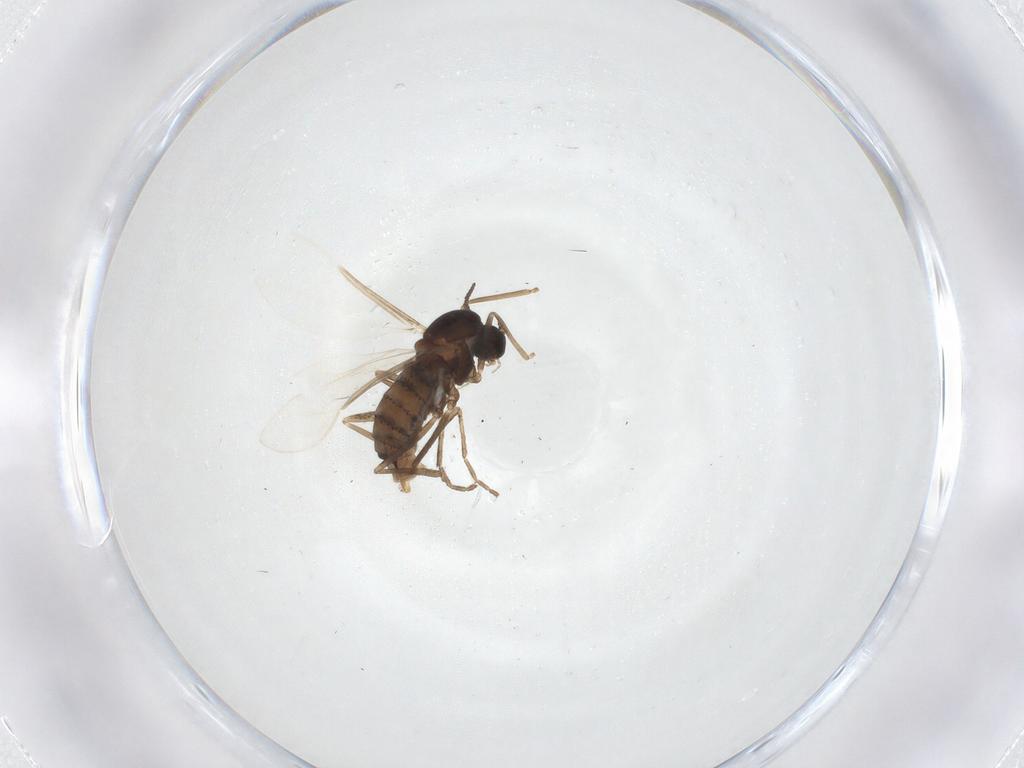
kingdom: Animalia
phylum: Arthropoda
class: Insecta
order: Diptera
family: Cecidomyiidae
